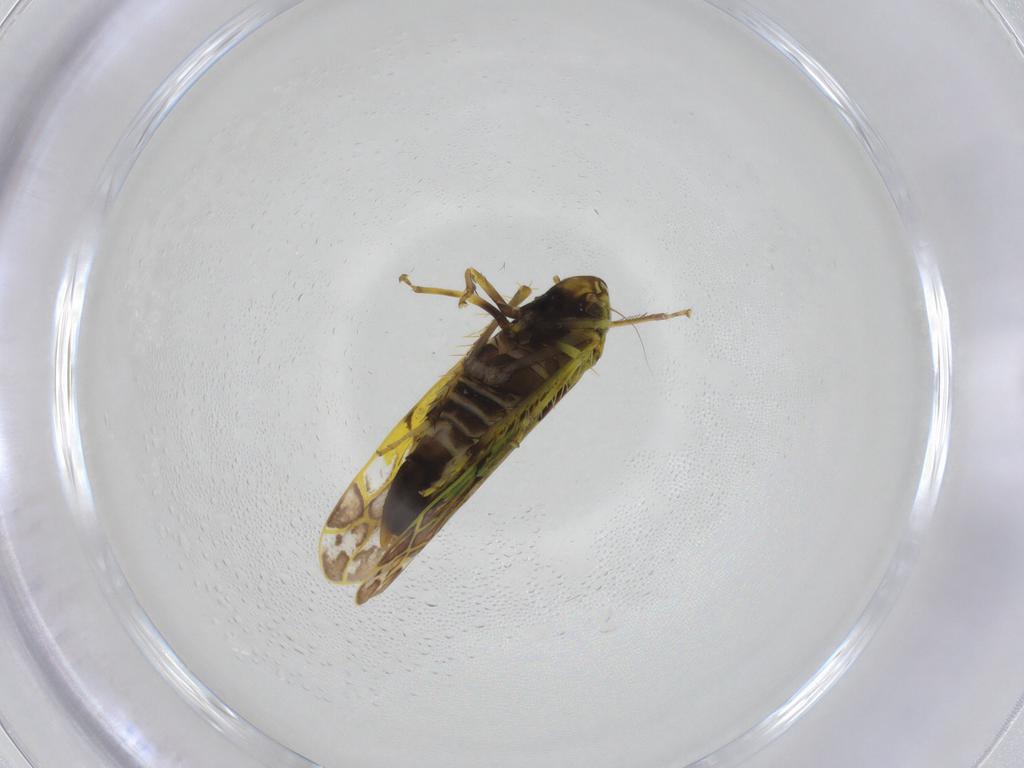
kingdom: Animalia
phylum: Arthropoda
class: Insecta
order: Hemiptera
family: Cicadellidae
